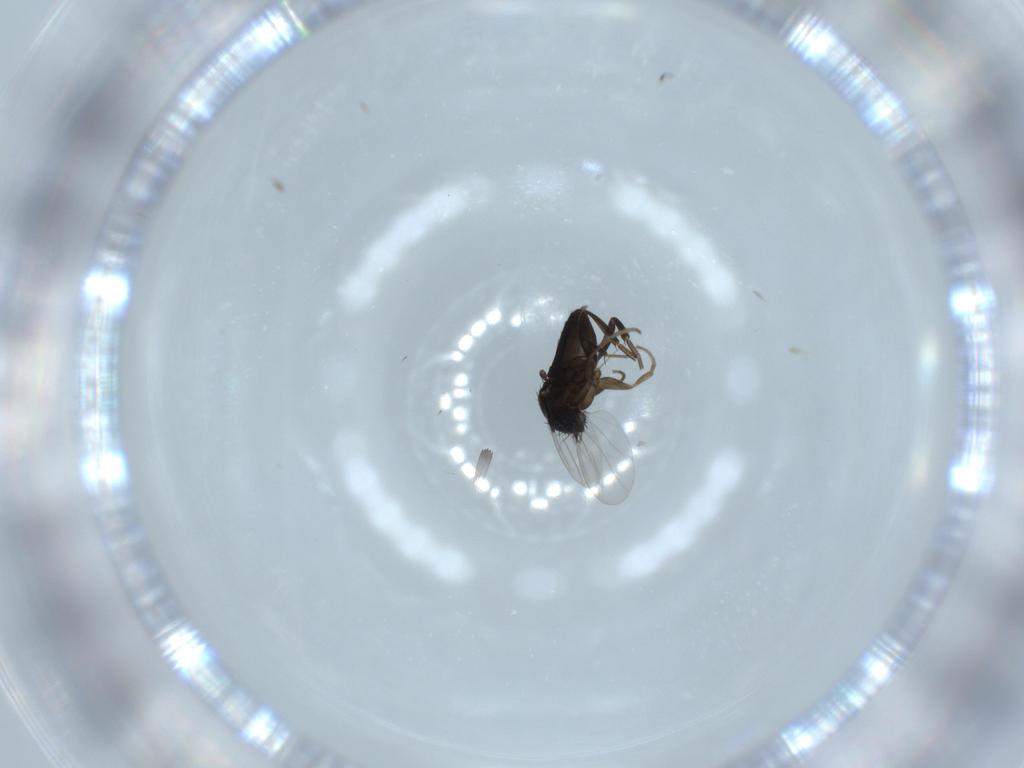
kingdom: Animalia
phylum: Arthropoda
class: Insecta
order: Diptera
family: Phoridae
